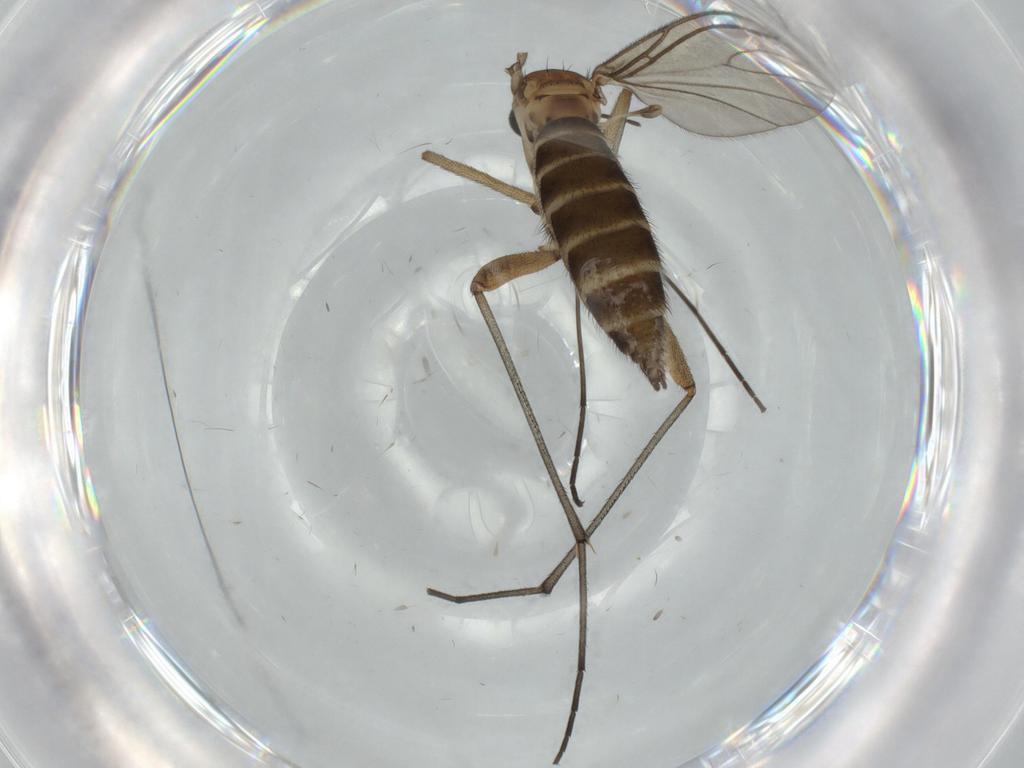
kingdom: Animalia
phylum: Arthropoda
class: Insecta
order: Diptera
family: Sciaridae
